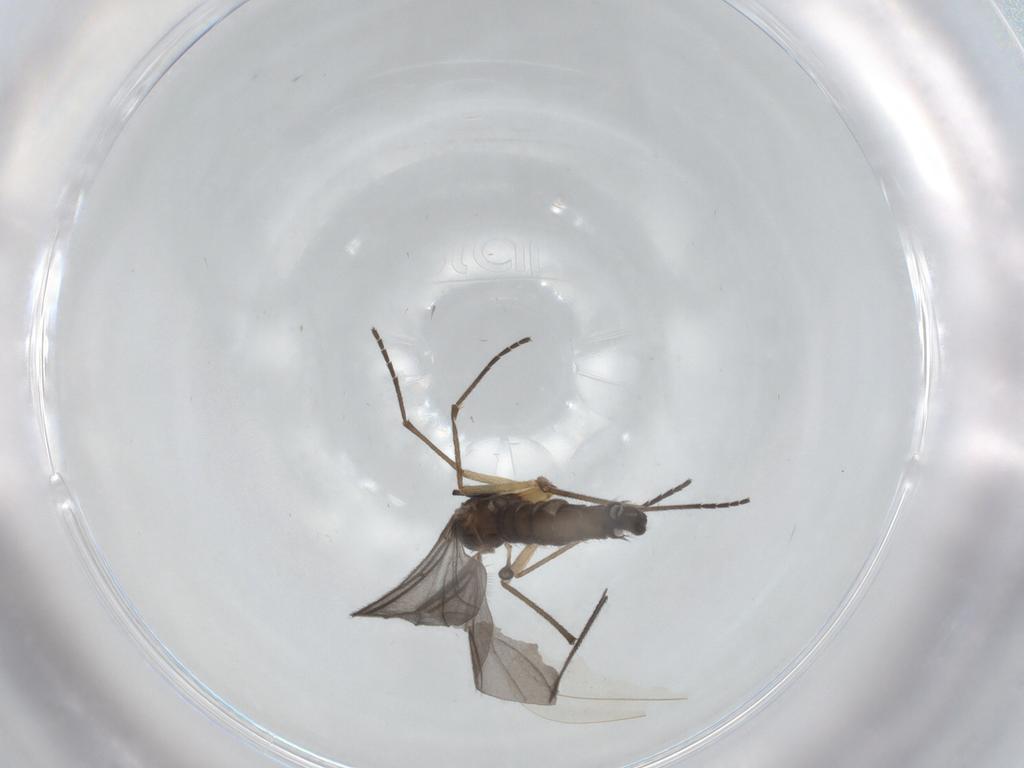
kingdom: Animalia
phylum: Arthropoda
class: Insecta
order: Diptera
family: Sciaridae
